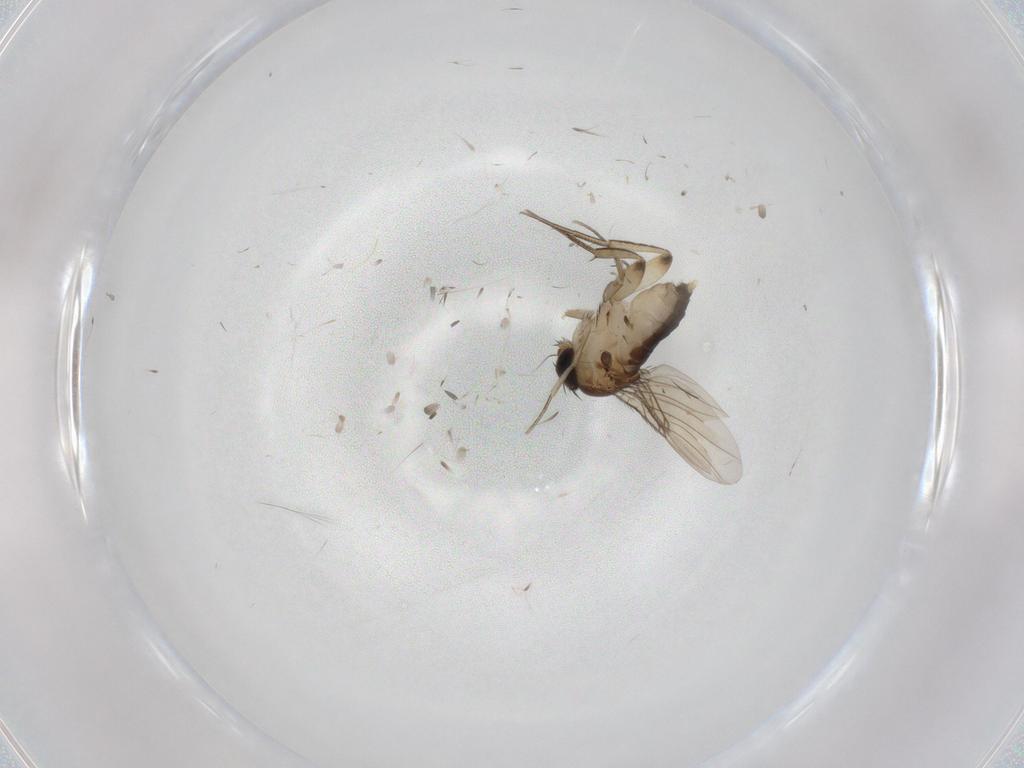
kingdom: Animalia
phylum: Arthropoda
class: Insecta
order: Diptera
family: Phoridae
